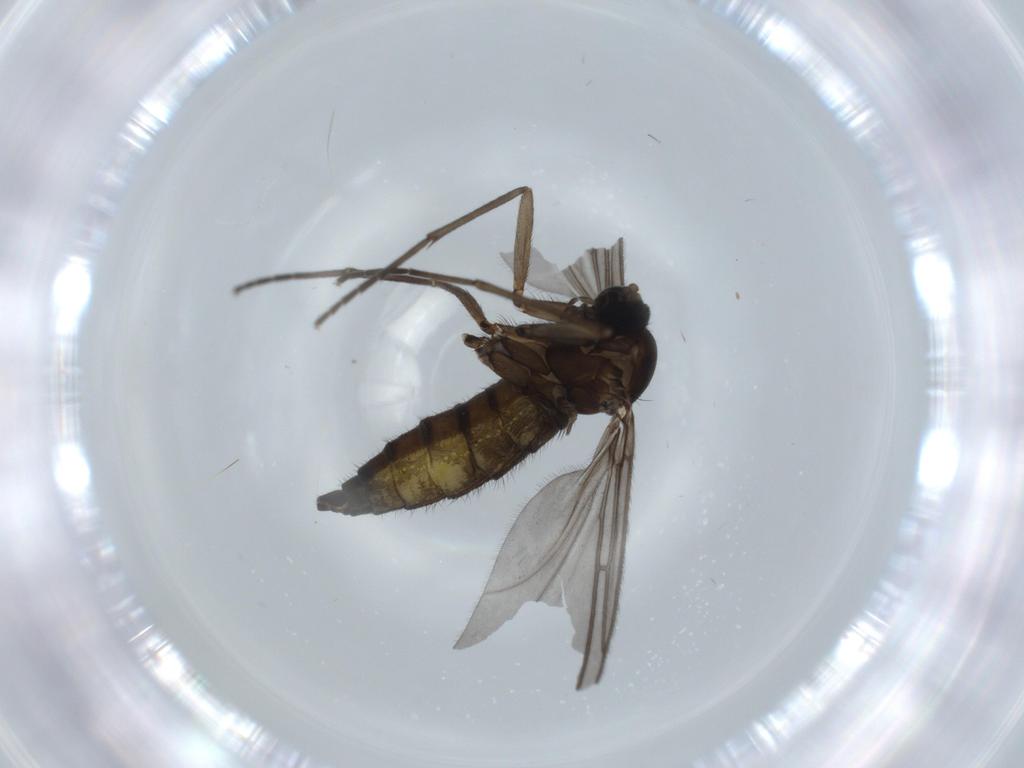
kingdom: Animalia
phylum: Arthropoda
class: Insecta
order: Diptera
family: Sciaridae
